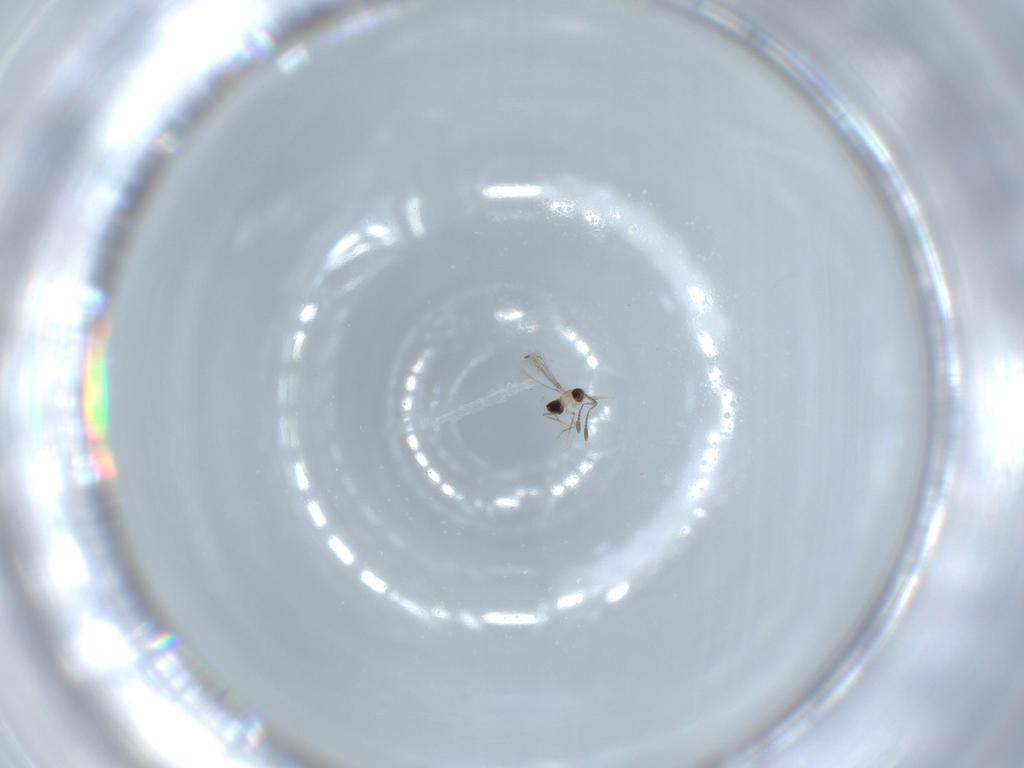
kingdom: Animalia
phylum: Arthropoda
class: Insecta
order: Hymenoptera
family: Mymaridae
